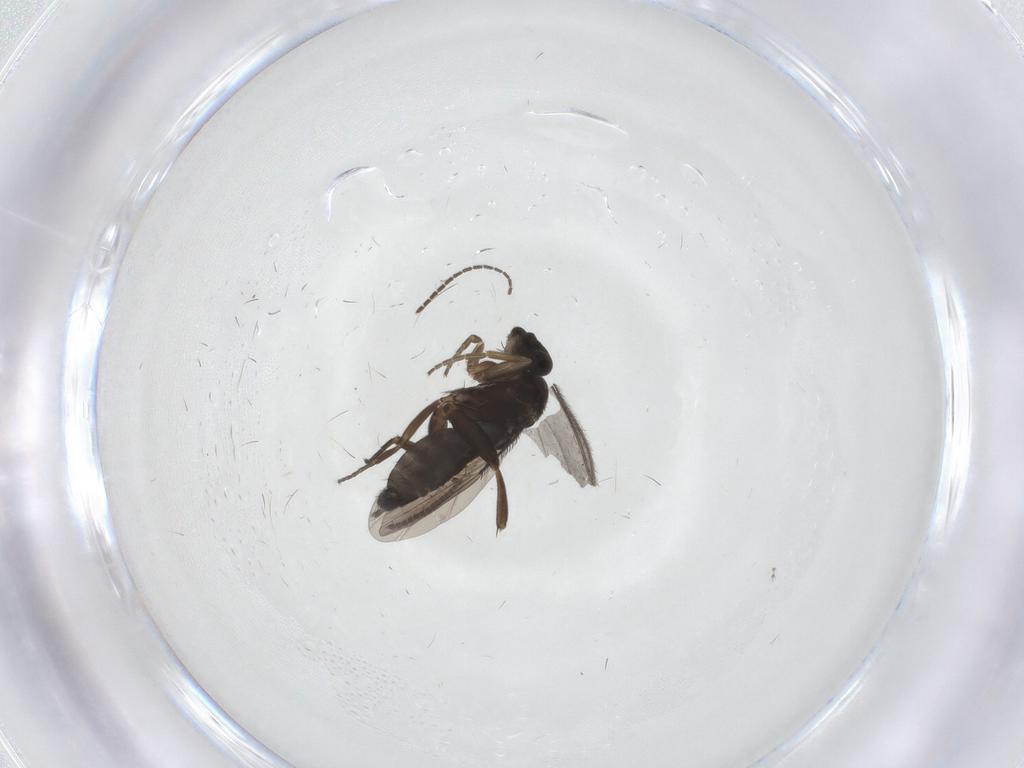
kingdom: Animalia
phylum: Arthropoda
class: Insecta
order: Diptera
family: Phoridae
